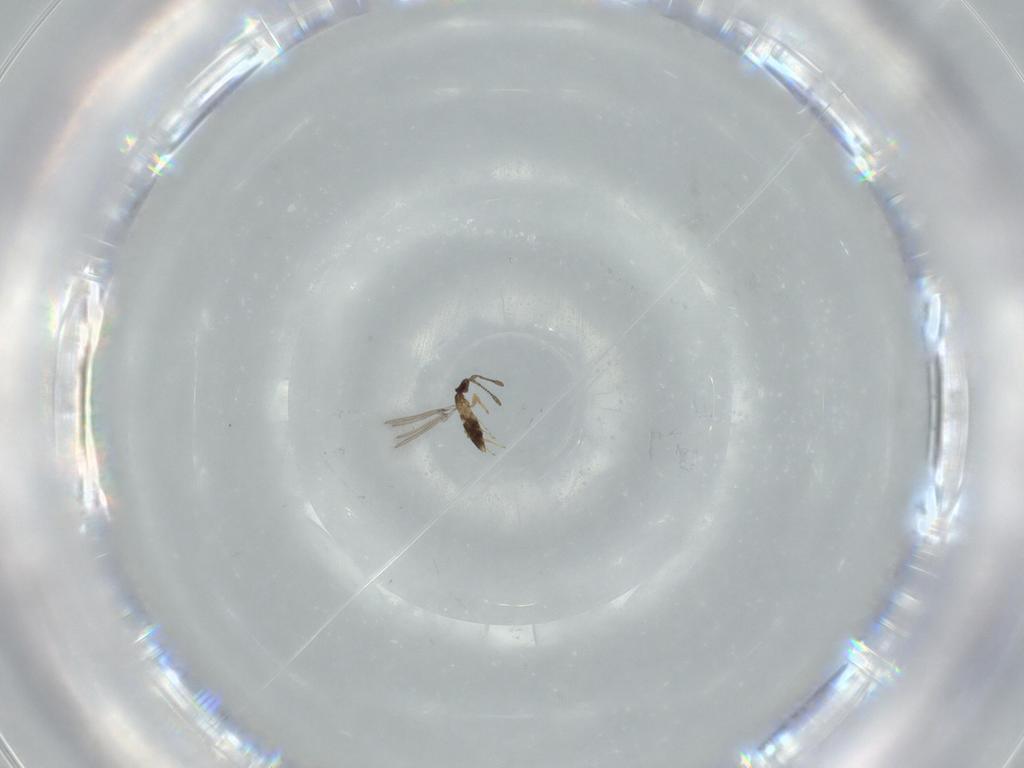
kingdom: Animalia
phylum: Arthropoda
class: Insecta
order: Hymenoptera
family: Mymaridae
